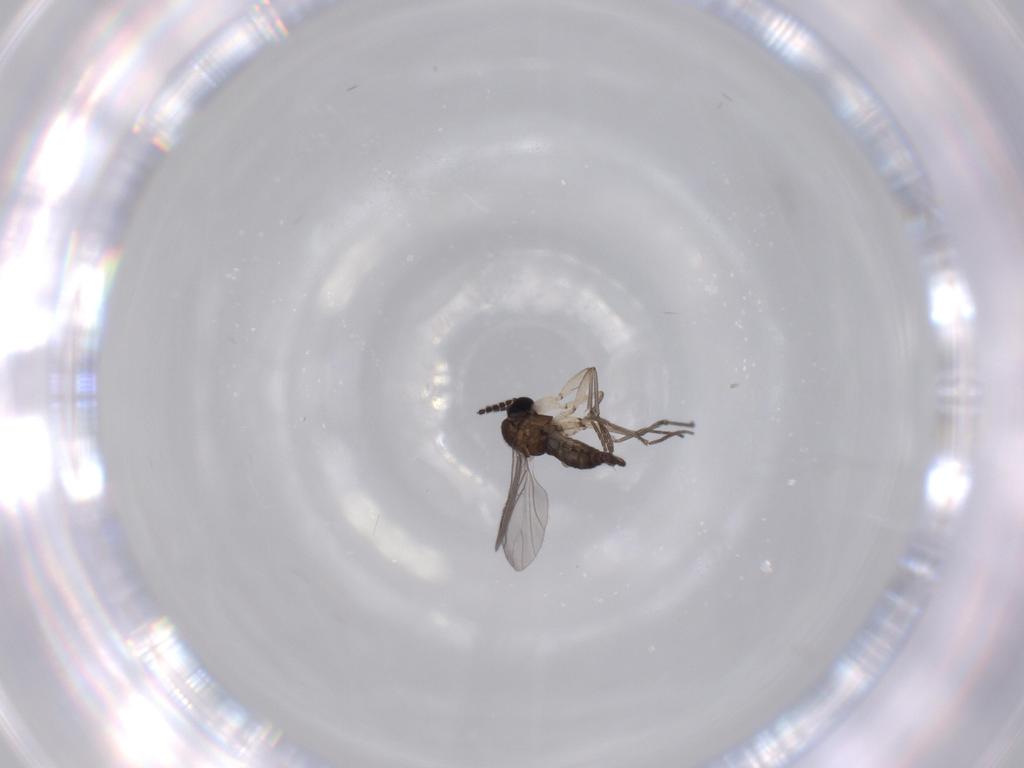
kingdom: Animalia
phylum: Arthropoda
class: Insecta
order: Diptera
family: Sciaridae
